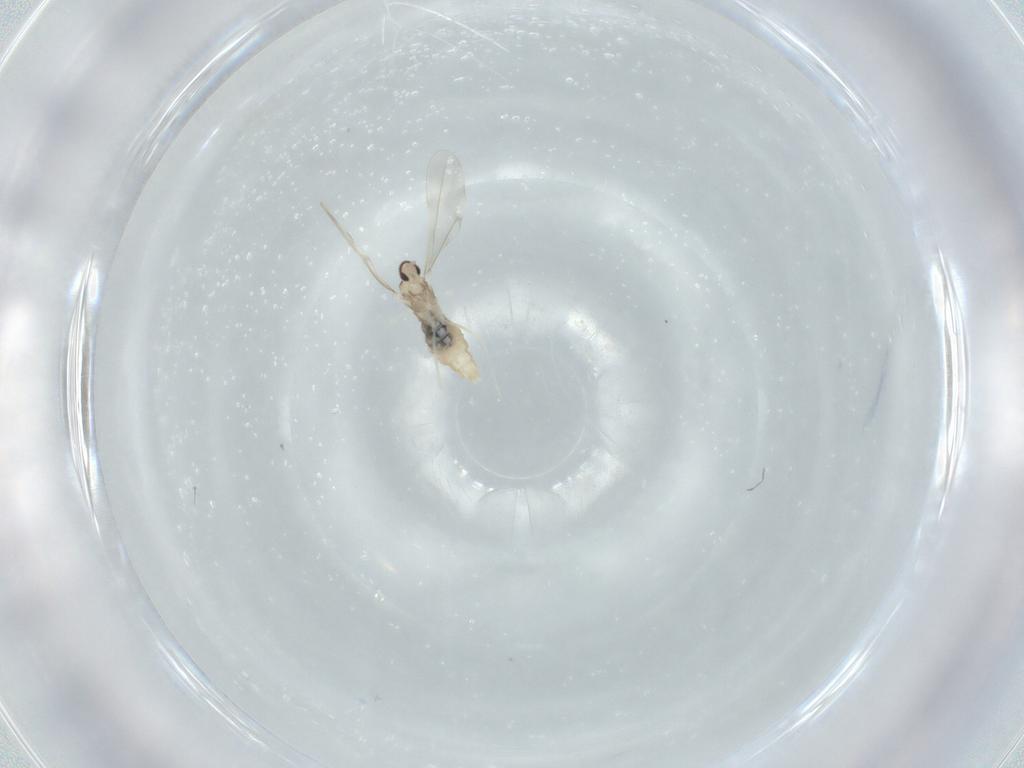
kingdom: Animalia
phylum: Arthropoda
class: Insecta
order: Diptera
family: Cecidomyiidae
